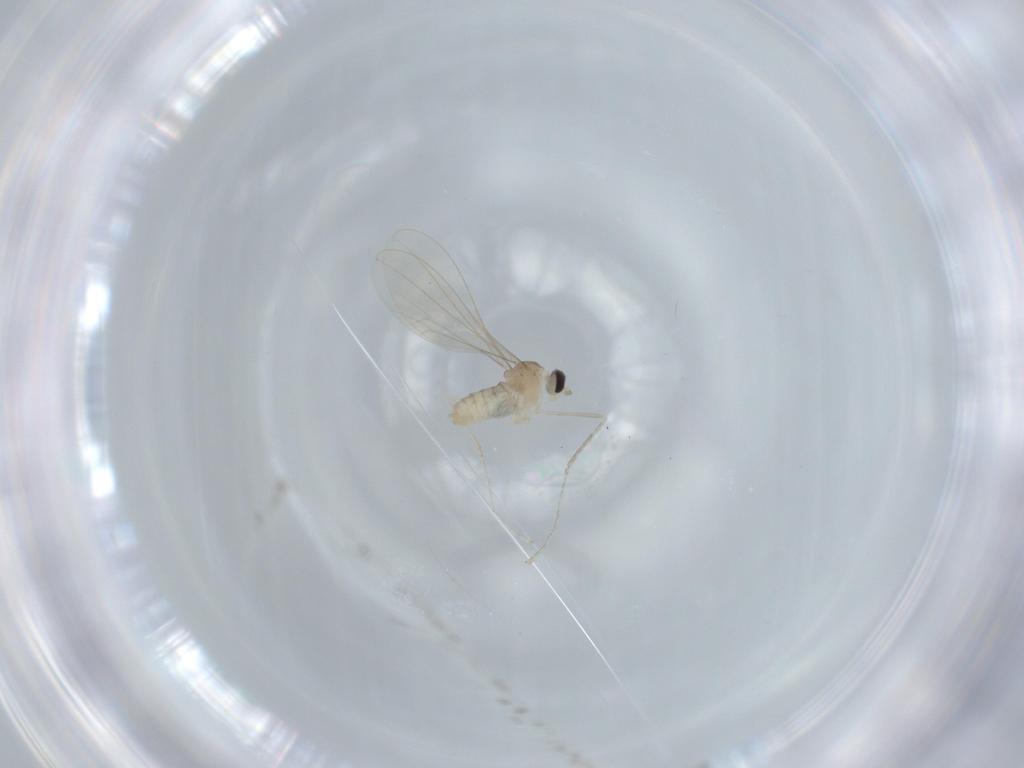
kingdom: Animalia
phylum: Arthropoda
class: Insecta
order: Diptera
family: Cecidomyiidae
